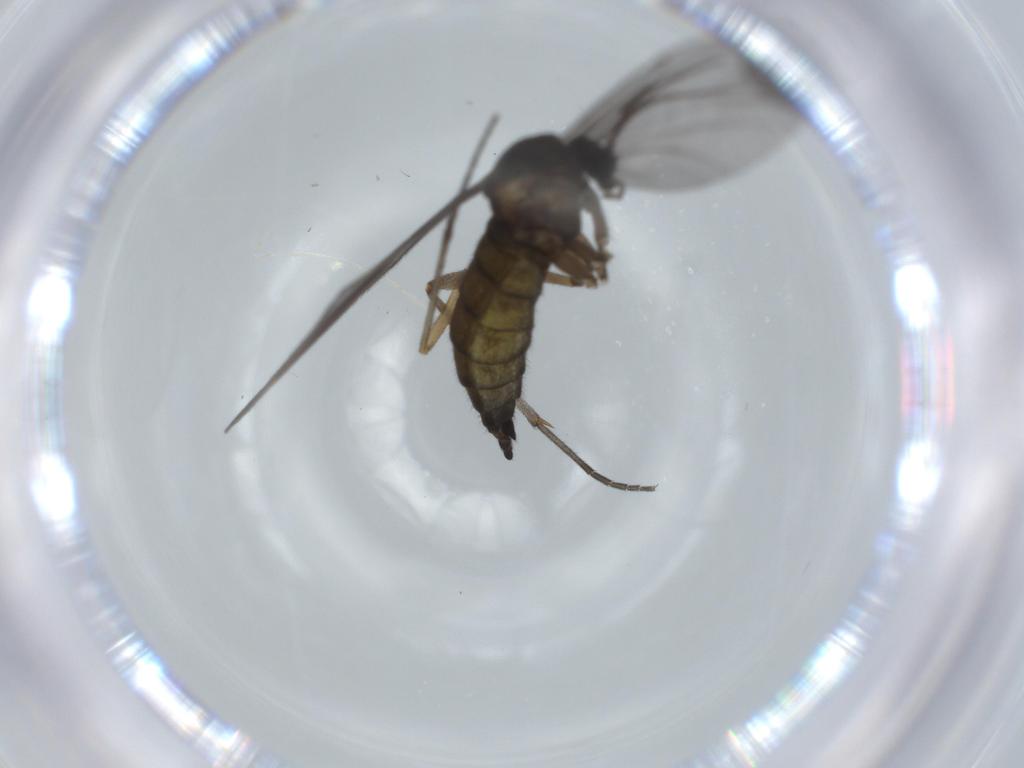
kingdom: Animalia
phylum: Arthropoda
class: Insecta
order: Diptera
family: Sciaridae
